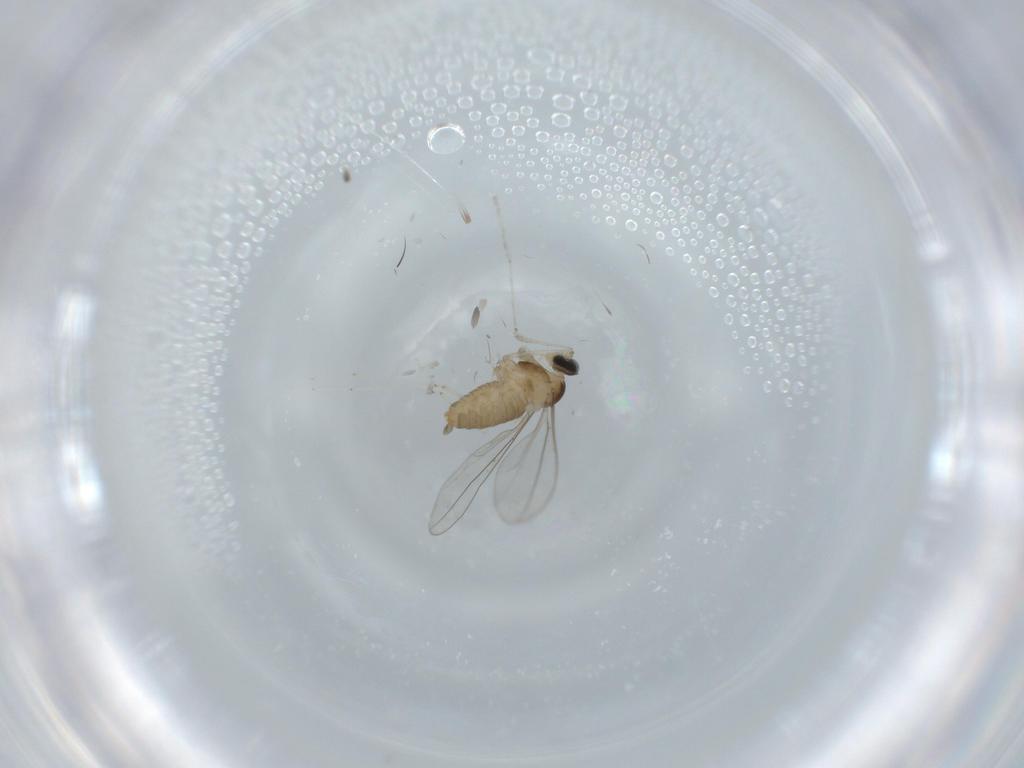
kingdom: Animalia
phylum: Arthropoda
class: Insecta
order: Diptera
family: Cecidomyiidae
